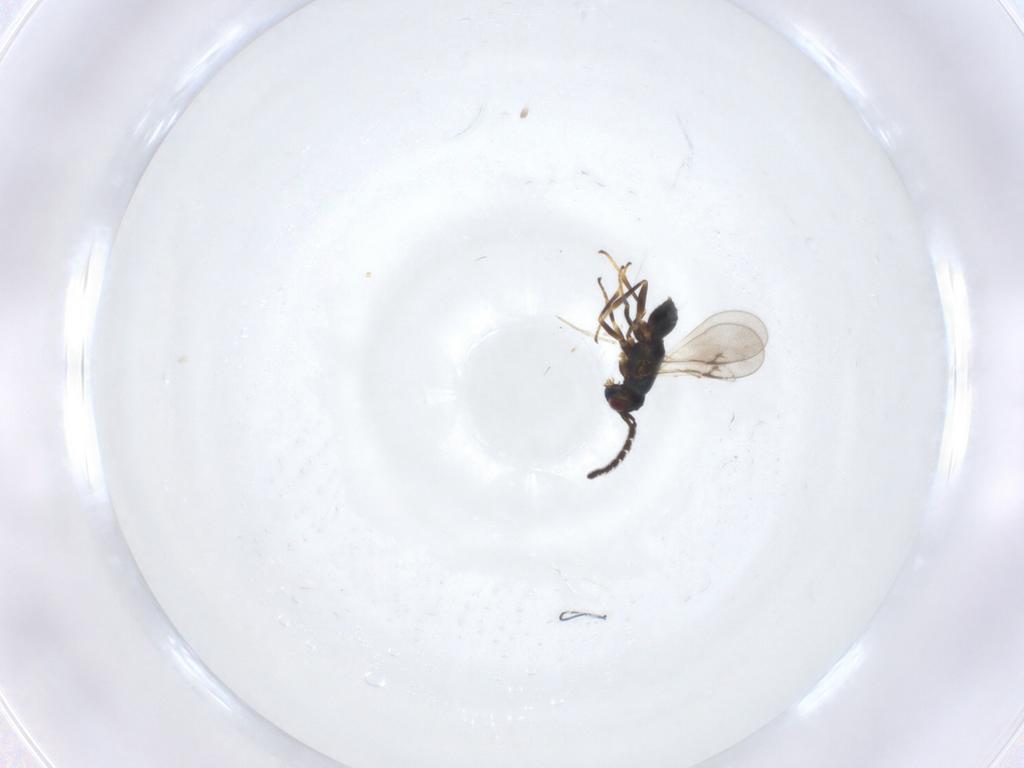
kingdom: Animalia
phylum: Arthropoda
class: Insecta
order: Hymenoptera
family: Encyrtidae
